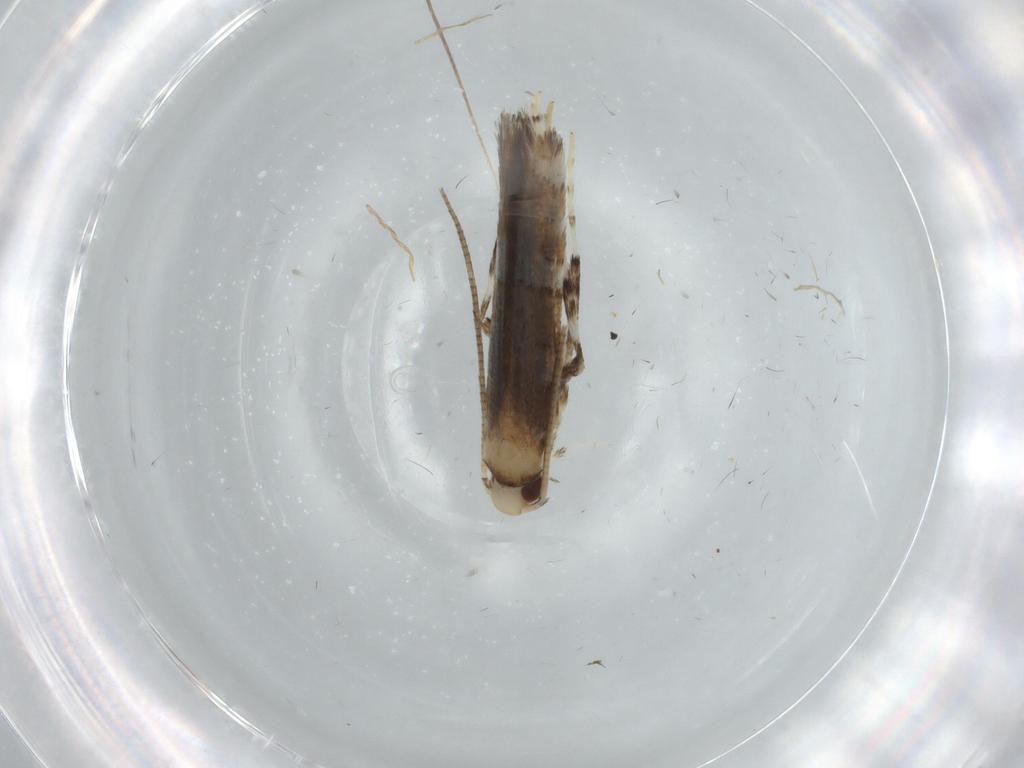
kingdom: Animalia
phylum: Arthropoda
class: Insecta
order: Lepidoptera
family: Gracillariidae
